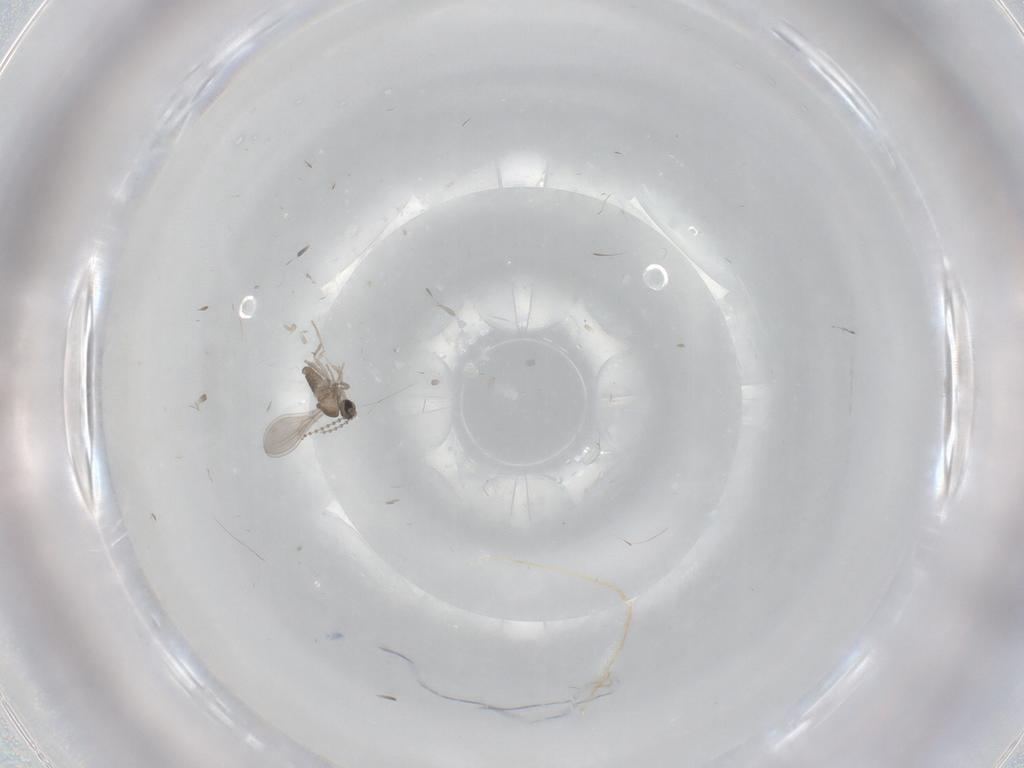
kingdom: Animalia
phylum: Arthropoda
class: Insecta
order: Diptera
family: Cecidomyiidae
